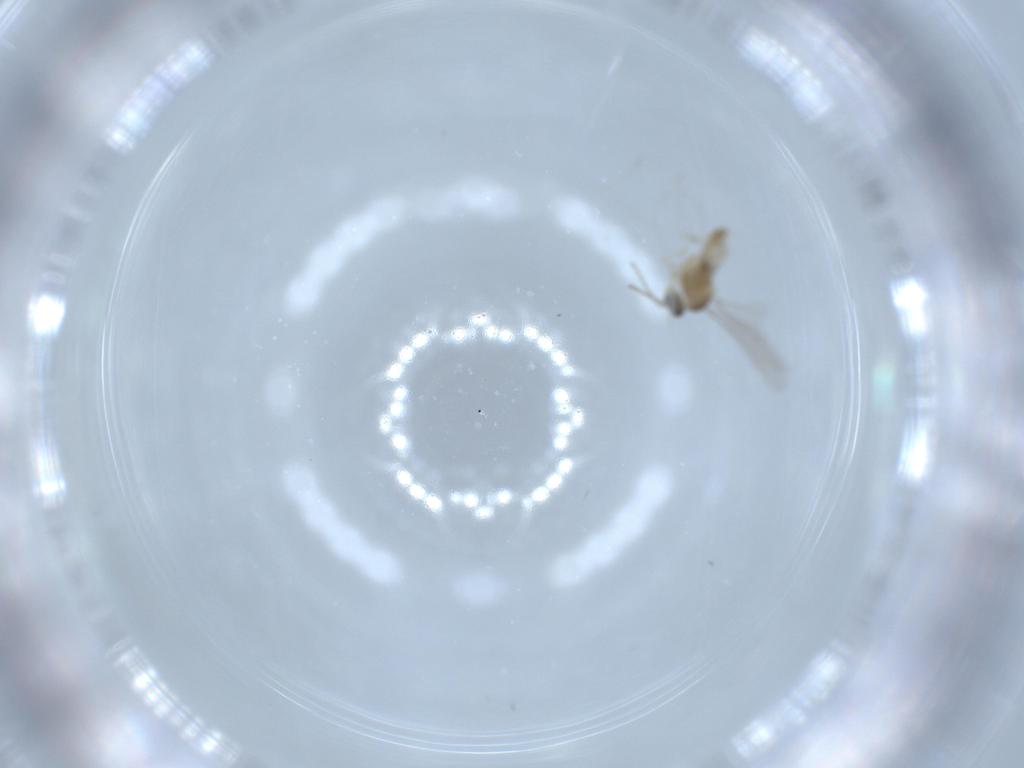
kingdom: Animalia
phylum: Arthropoda
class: Insecta
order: Diptera
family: Cecidomyiidae
